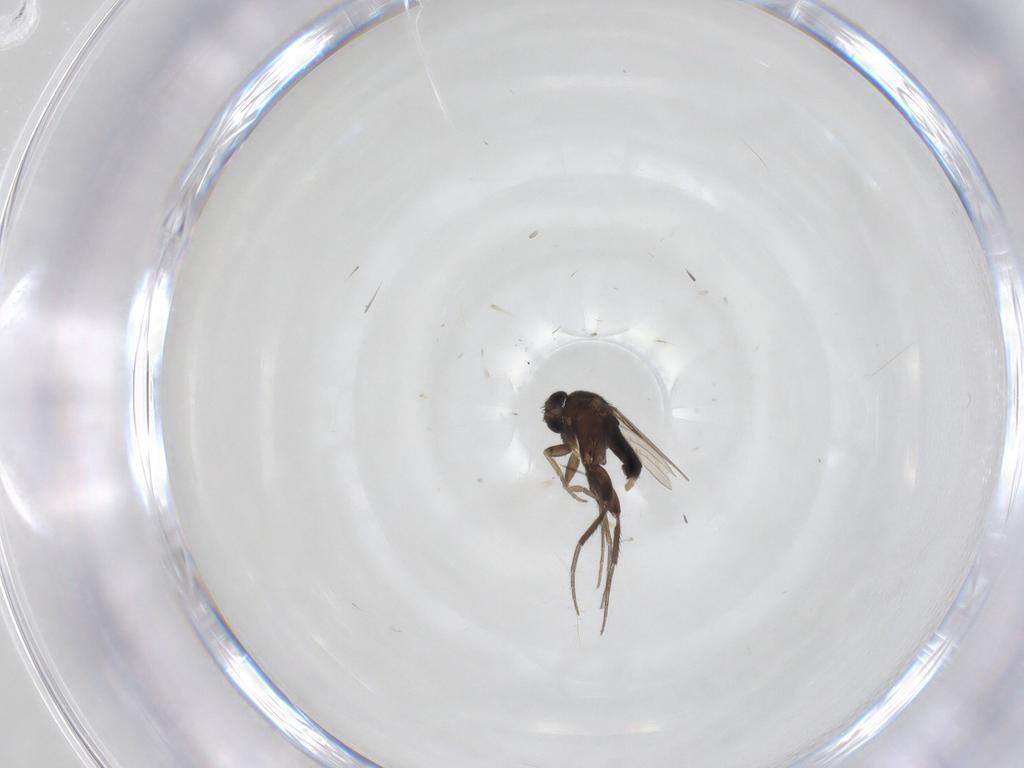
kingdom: Animalia
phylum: Arthropoda
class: Insecta
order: Diptera
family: Phoridae
